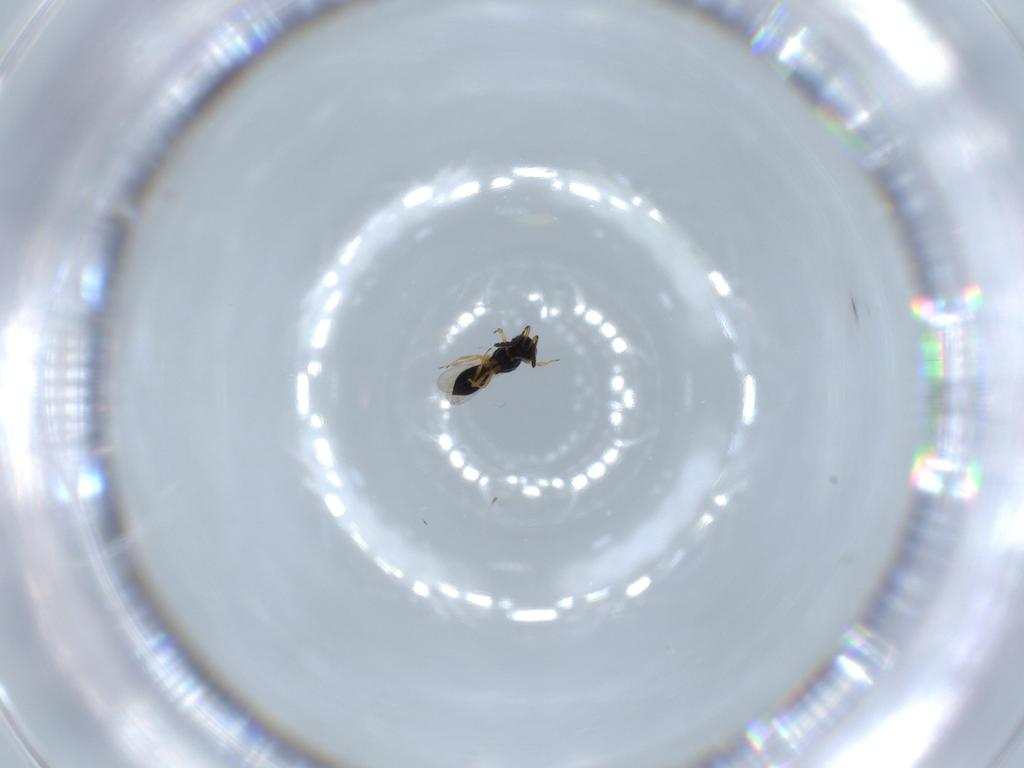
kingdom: Animalia
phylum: Arthropoda
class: Insecta
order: Hymenoptera
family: Scelionidae
